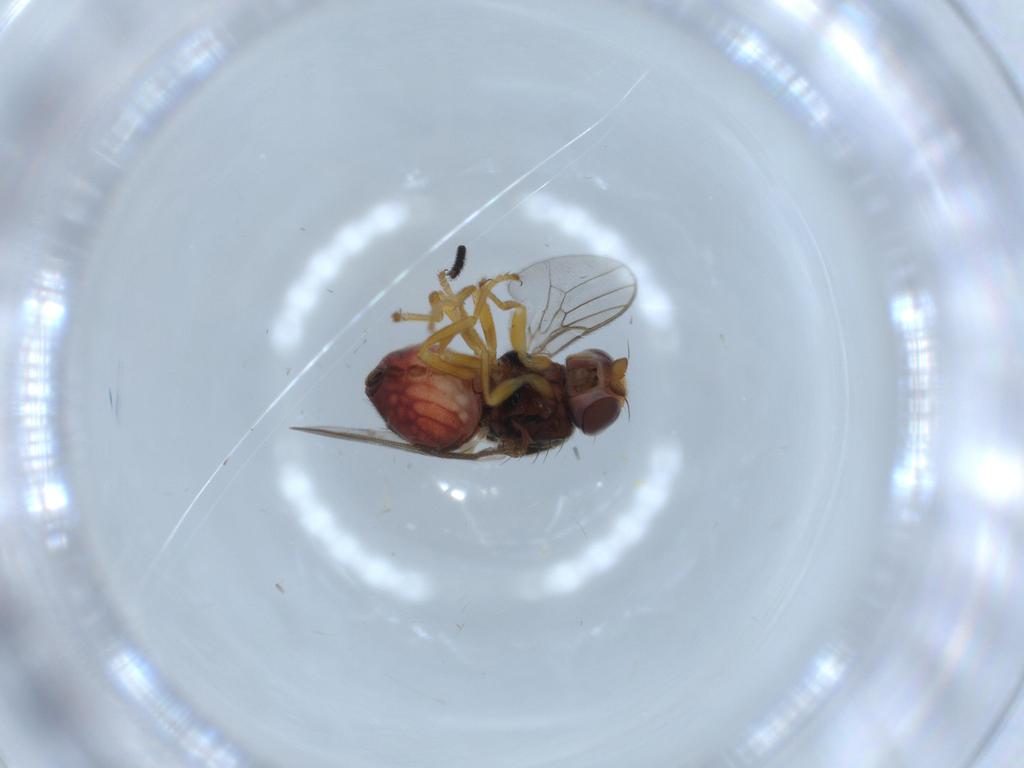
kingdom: Animalia
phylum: Arthropoda
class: Insecta
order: Diptera
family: Chloropidae
